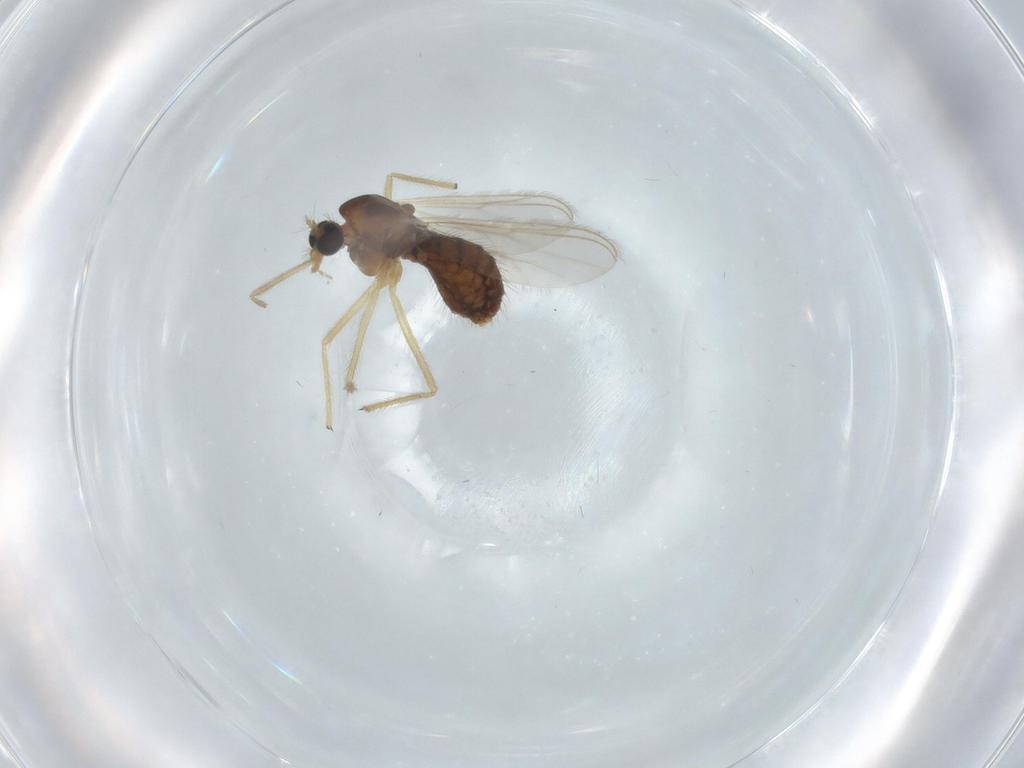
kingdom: Animalia
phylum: Arthropoda
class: Insecta
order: Diptera
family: Chironomidae
